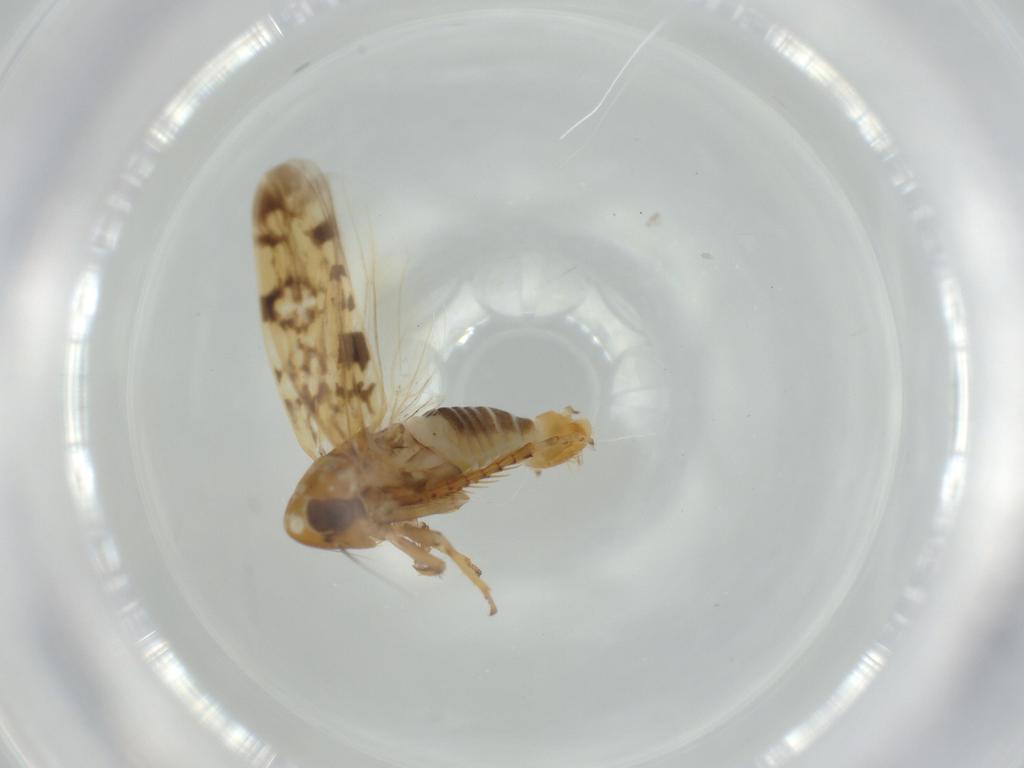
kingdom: Animalia
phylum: Arthropoda
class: Insecta
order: Hemiptera
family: Cicadellidae
